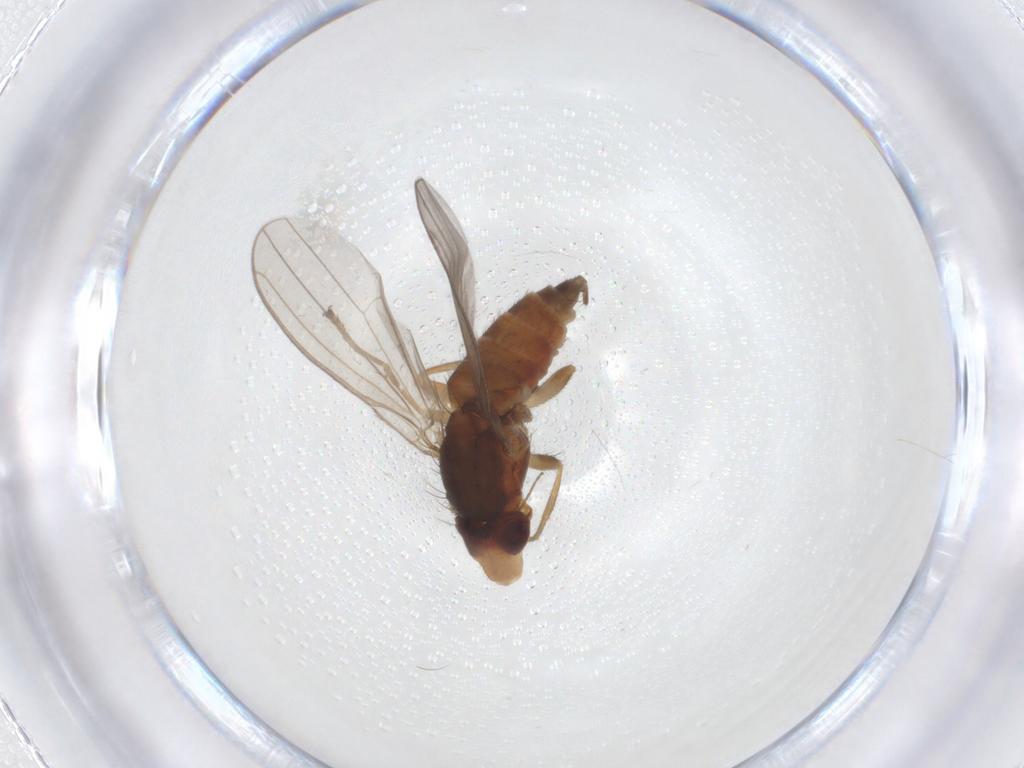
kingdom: Animalia
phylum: Arthropoda
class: Insecta
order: Diptera
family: Canacidae
